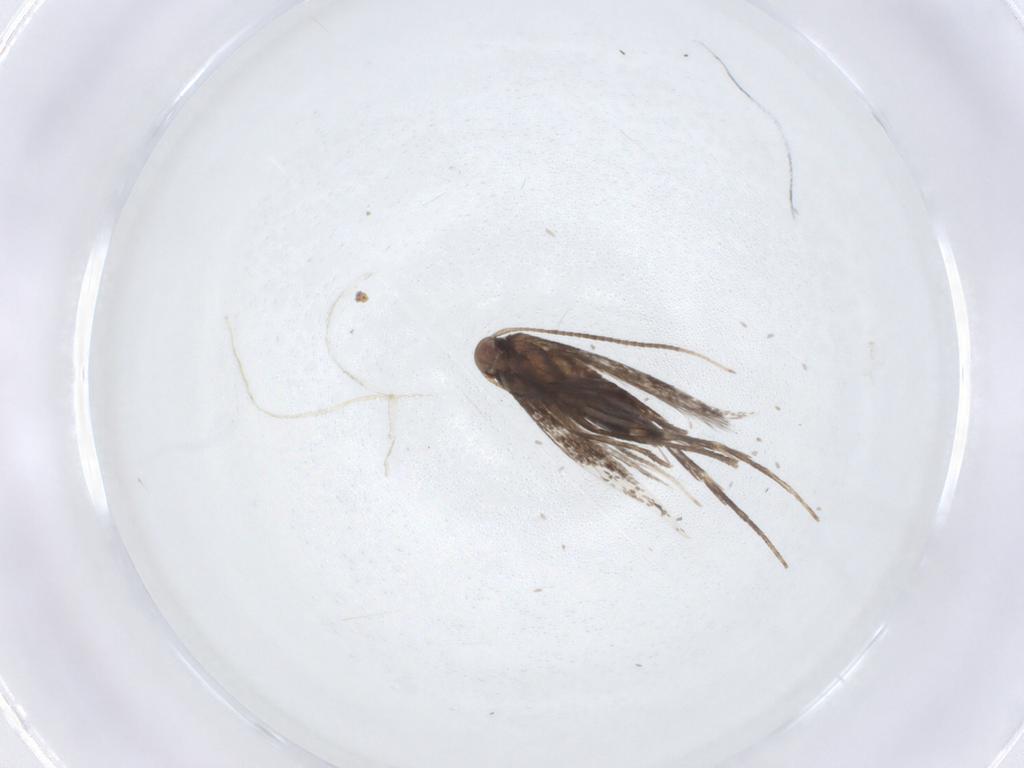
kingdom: Animalia
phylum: Arthropoda
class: Insecta
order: Lepidoptera
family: Gracillariidae
